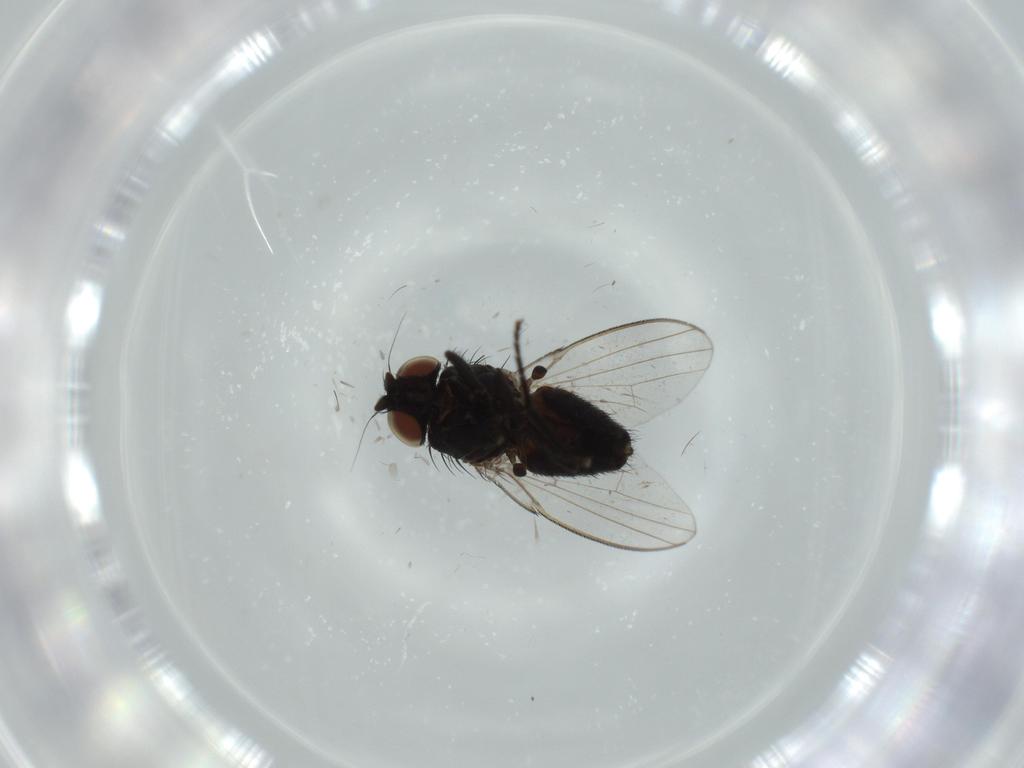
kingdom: Animalia
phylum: Arthropoda
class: Insecta
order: Diptera
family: Milichiidae
